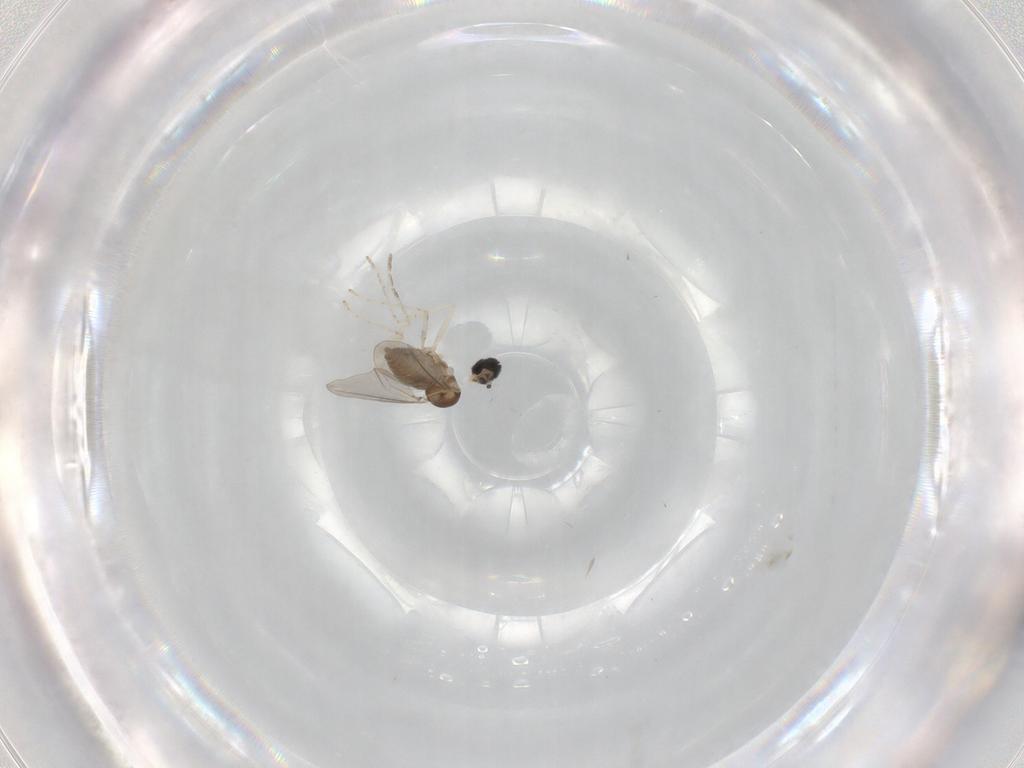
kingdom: Animalia
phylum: Arthropoda
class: Insecta
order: Diptera
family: Cecidomyiidae
